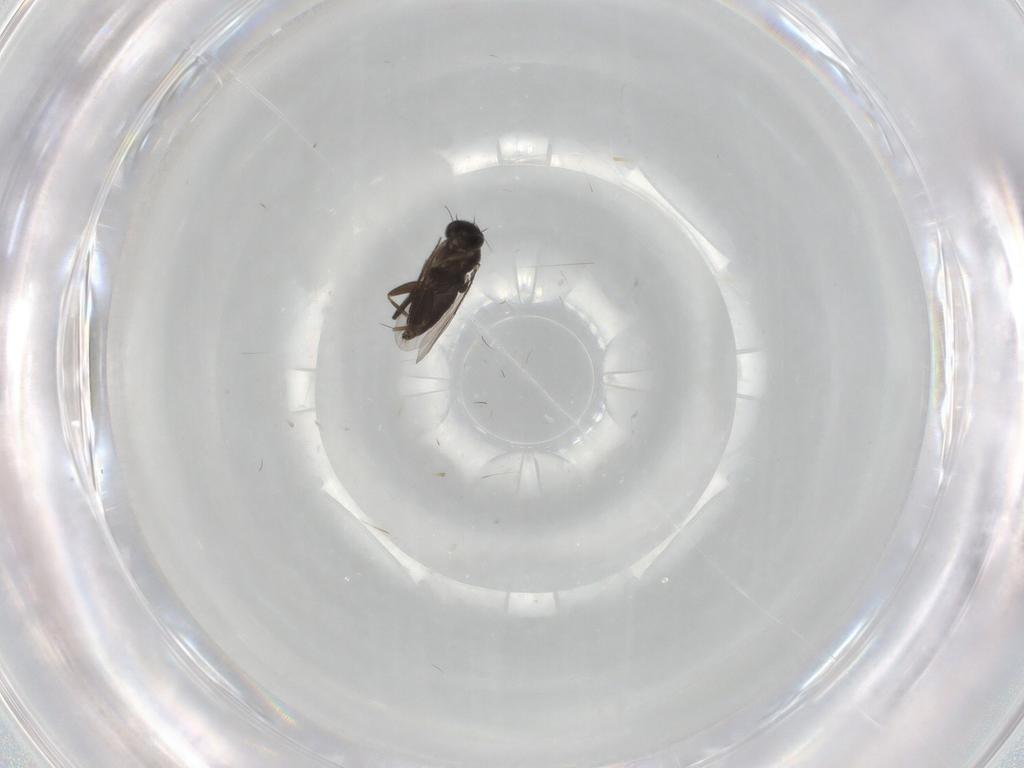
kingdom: Animalia
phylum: Arthropoda
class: Insecta
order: Diptera
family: Phoridae
